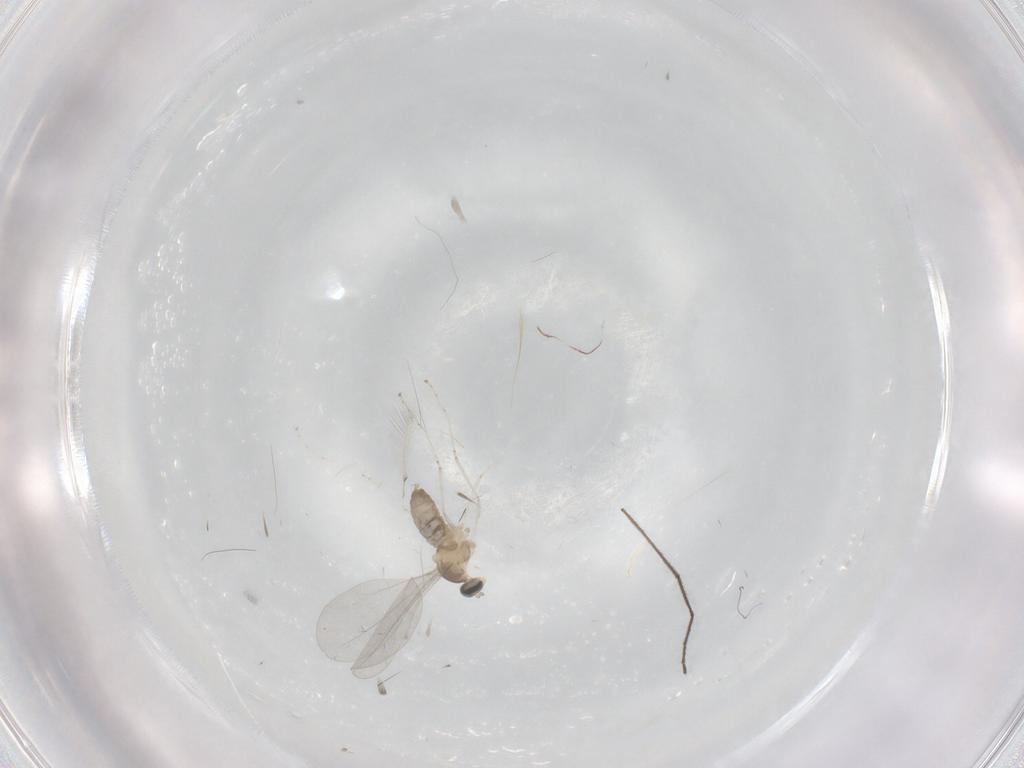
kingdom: Animalia
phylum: Arthropoda
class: Insecta
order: Diptera
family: Cecidomyiidae
